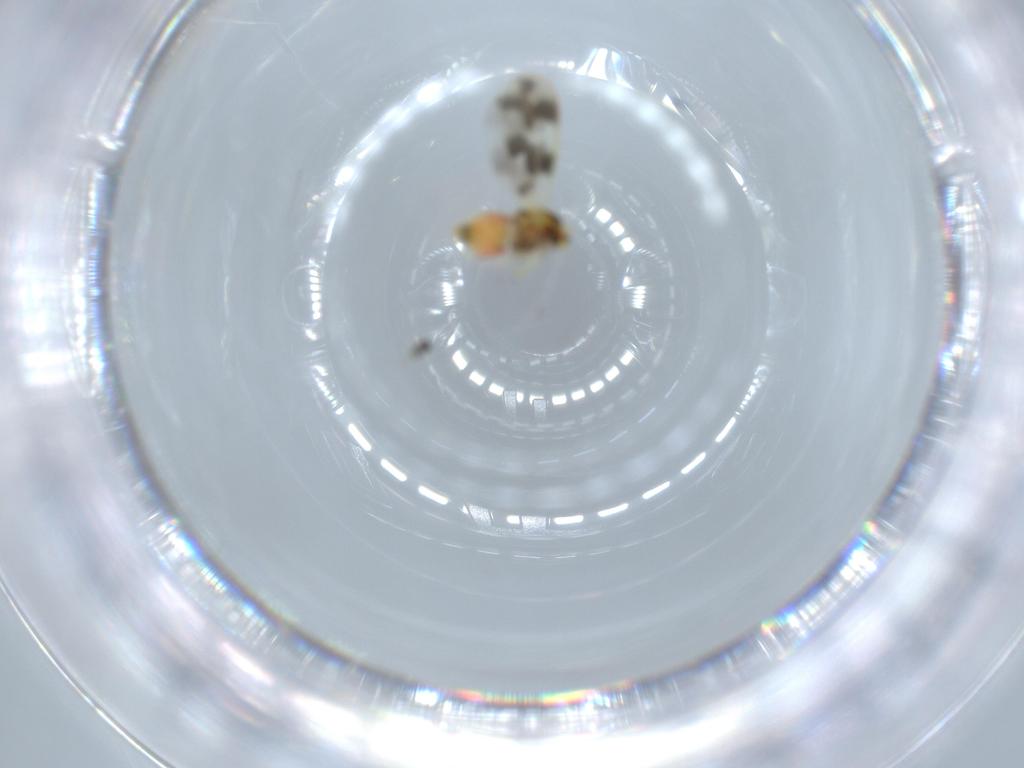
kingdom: Animalia
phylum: Arthropoda
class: Insecta
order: Hemiptera
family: Aleyrodidae
